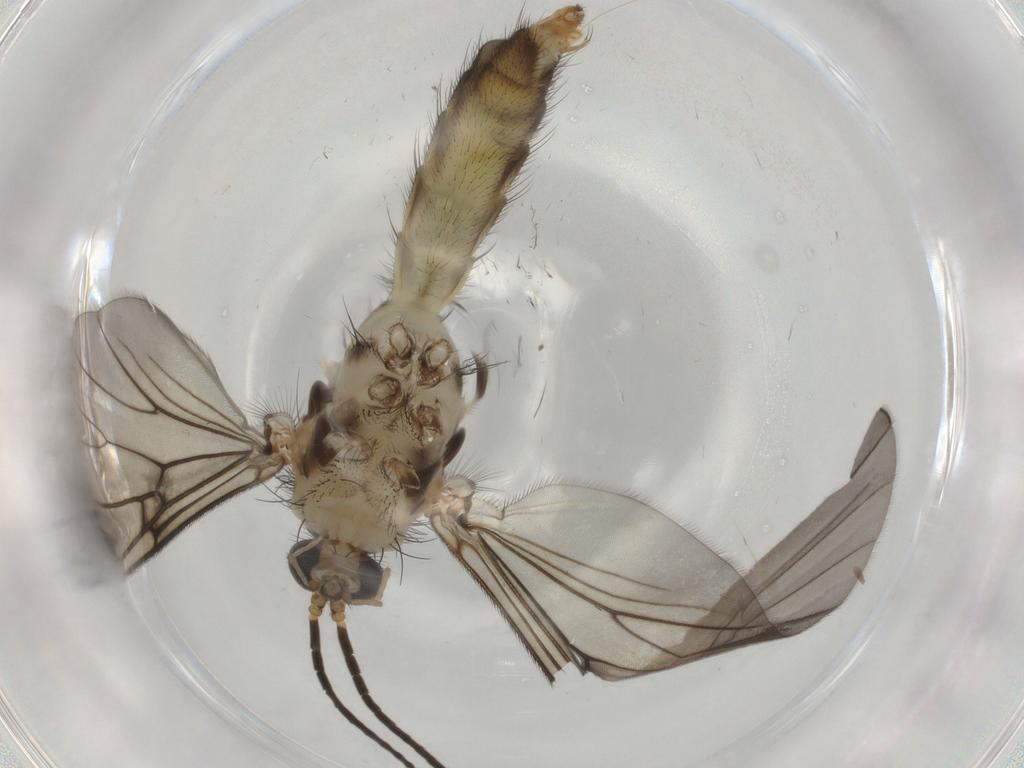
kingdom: Animalia
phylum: Arthropoda
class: Insecta
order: Diptera
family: Sciaridae
